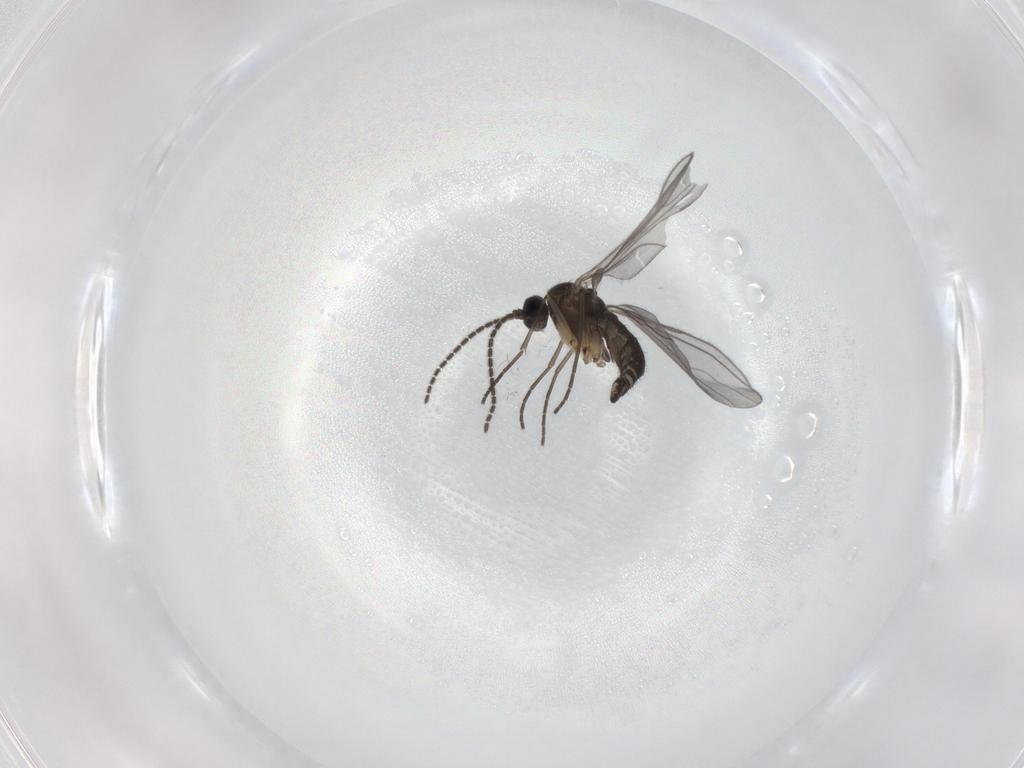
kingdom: Animalia
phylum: Arthropoda
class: Insecta
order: Diptera
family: Sciaridae
